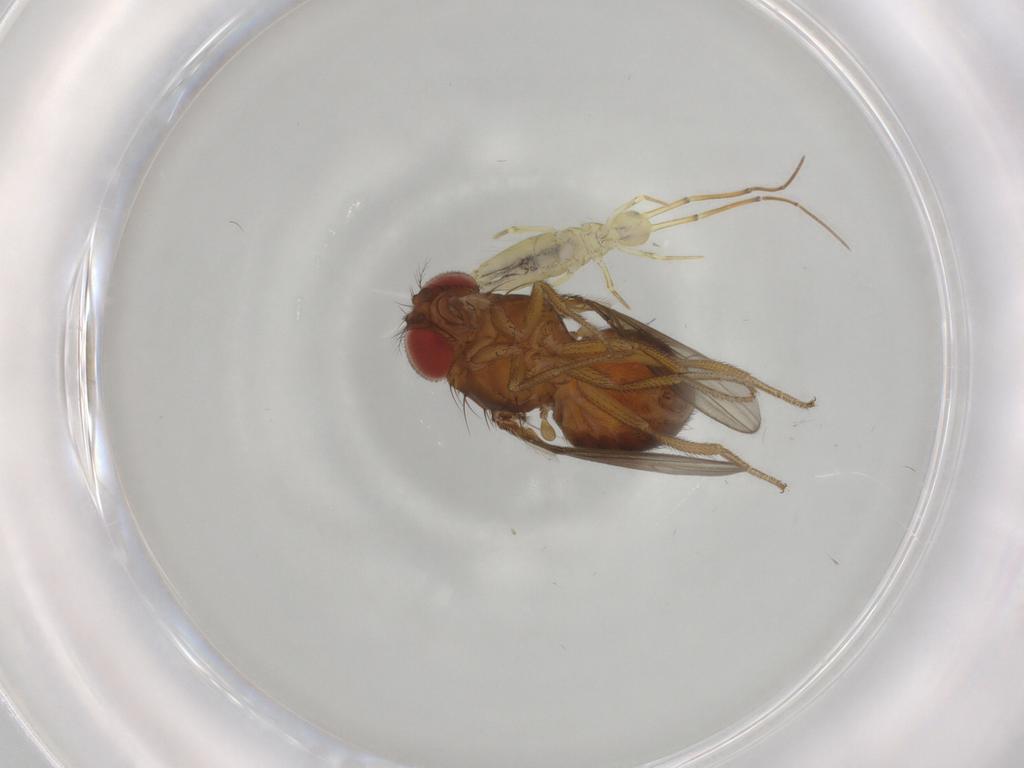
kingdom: Animalia
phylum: Arthropoda
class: Insecta
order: Diptera
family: Drosophilidae
